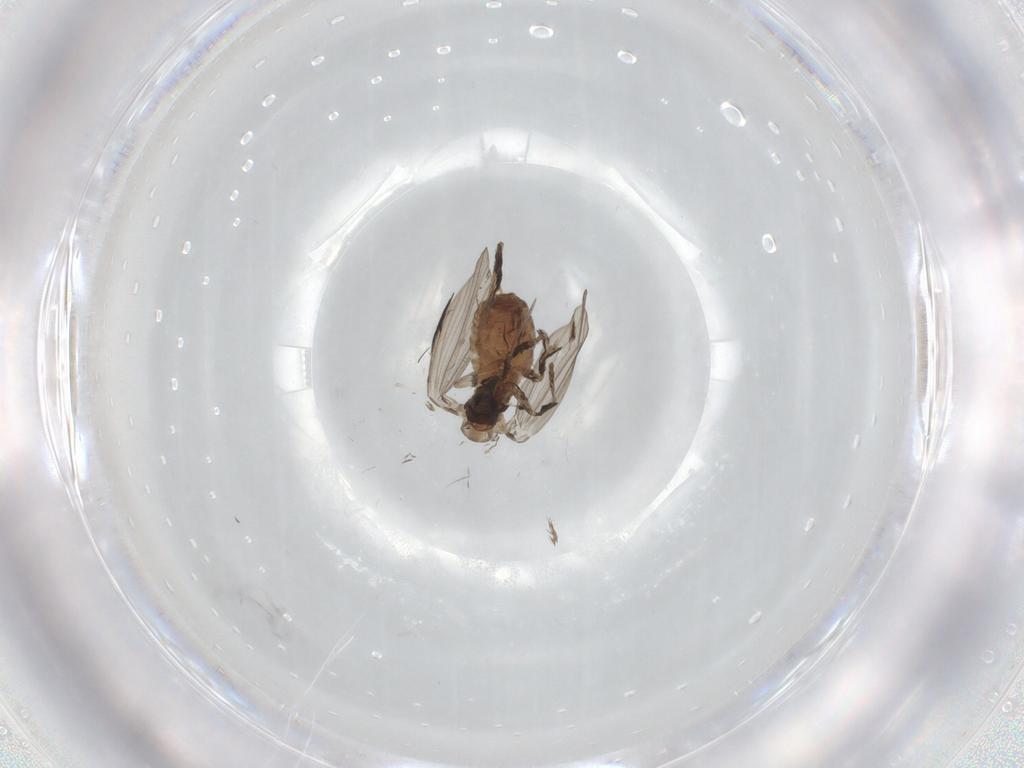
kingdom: Animalia
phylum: Arthropoda
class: Insecta
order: Diptera
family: Psychodidae
